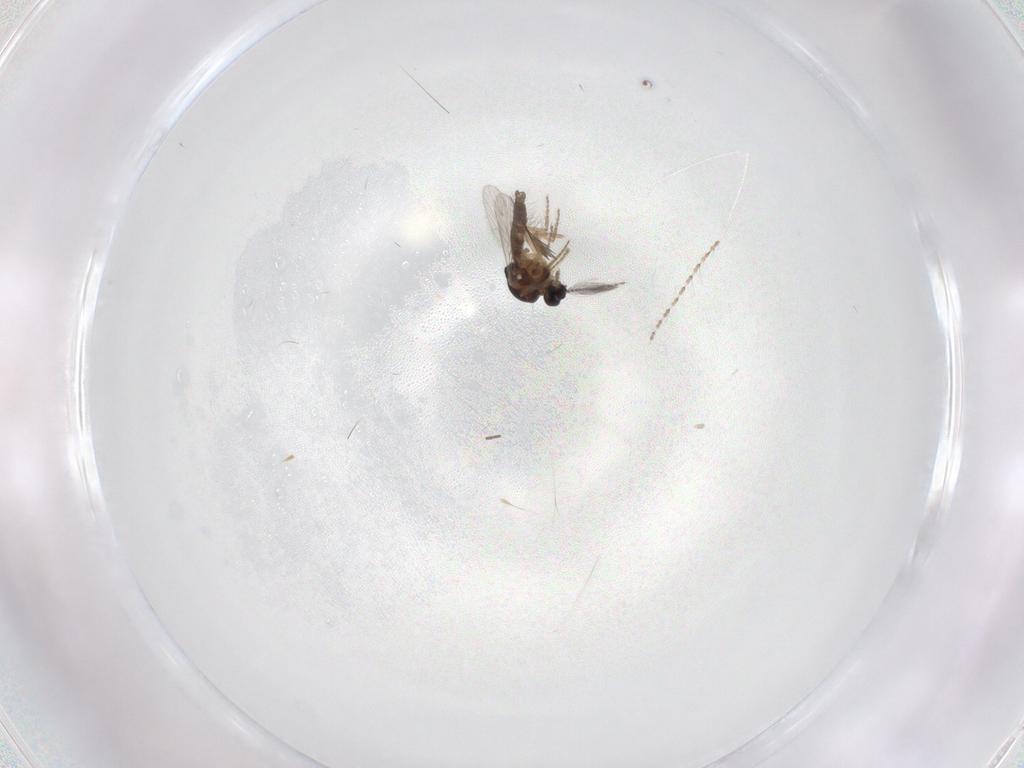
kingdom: Animalia
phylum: Arthropoda
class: Insecta
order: Diptera
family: Ceratopogonidae
